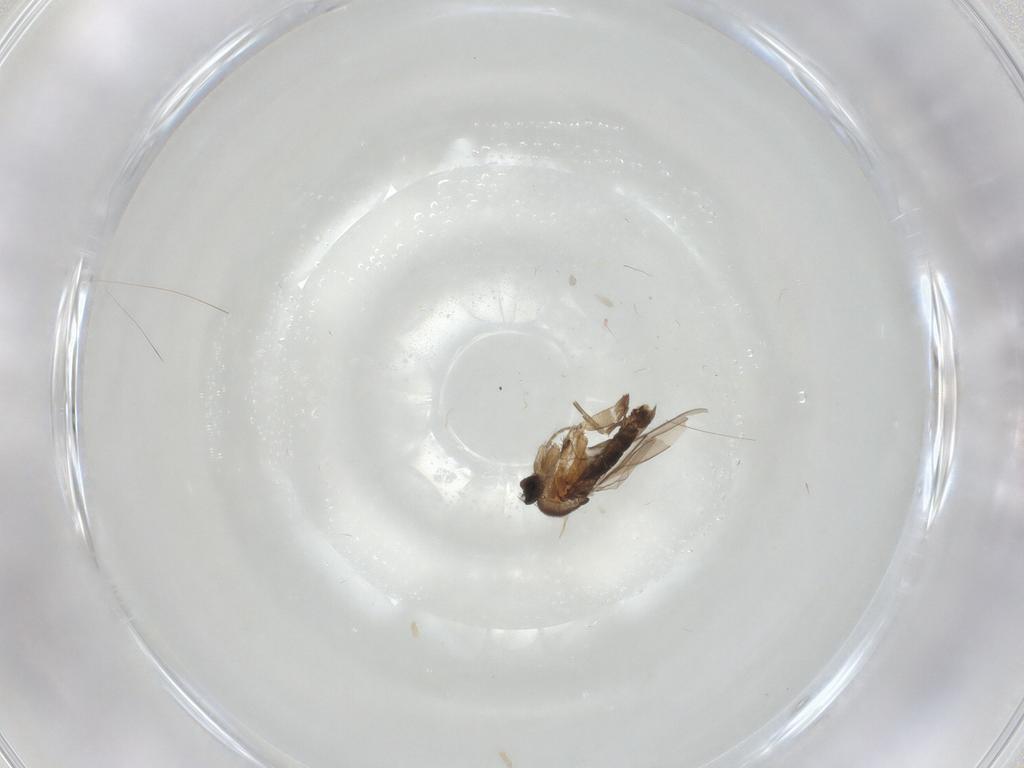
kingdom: Animalia
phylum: Arthropoda
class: Insecta
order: Diptera
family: Phoridae
